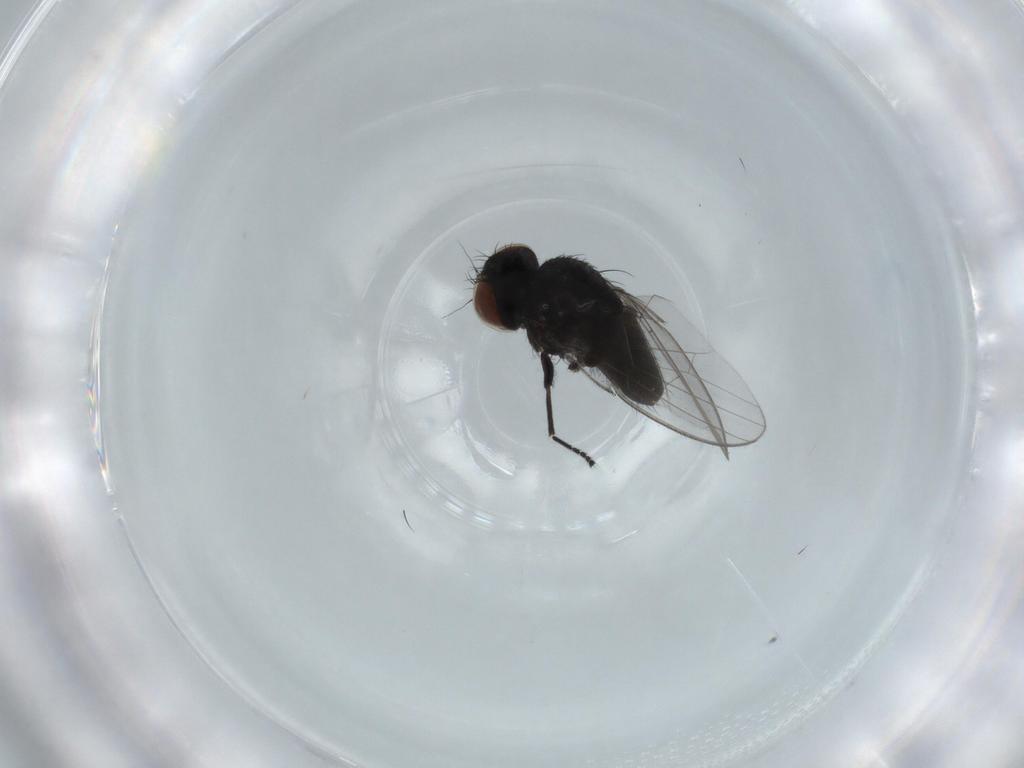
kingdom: Animalia
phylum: Arthropoda
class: Insecta
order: Diptera
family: Milichiidae
